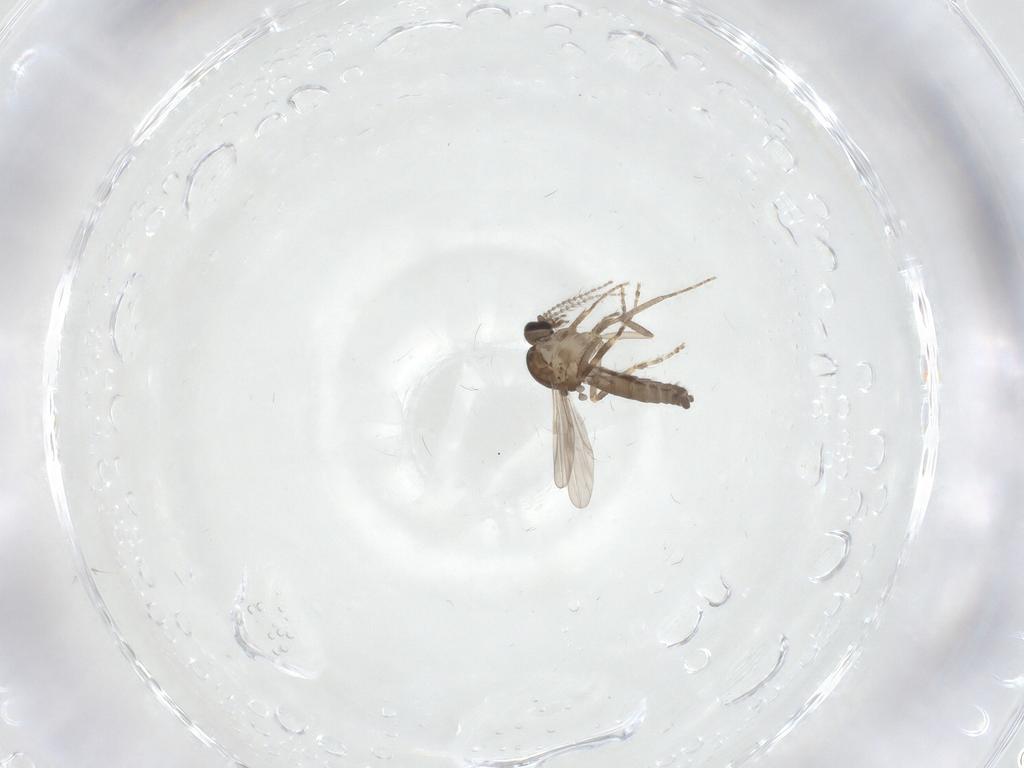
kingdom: Animalia
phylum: Arthropoda
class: Insecta
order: Diptera
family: Ceratopogonidae
